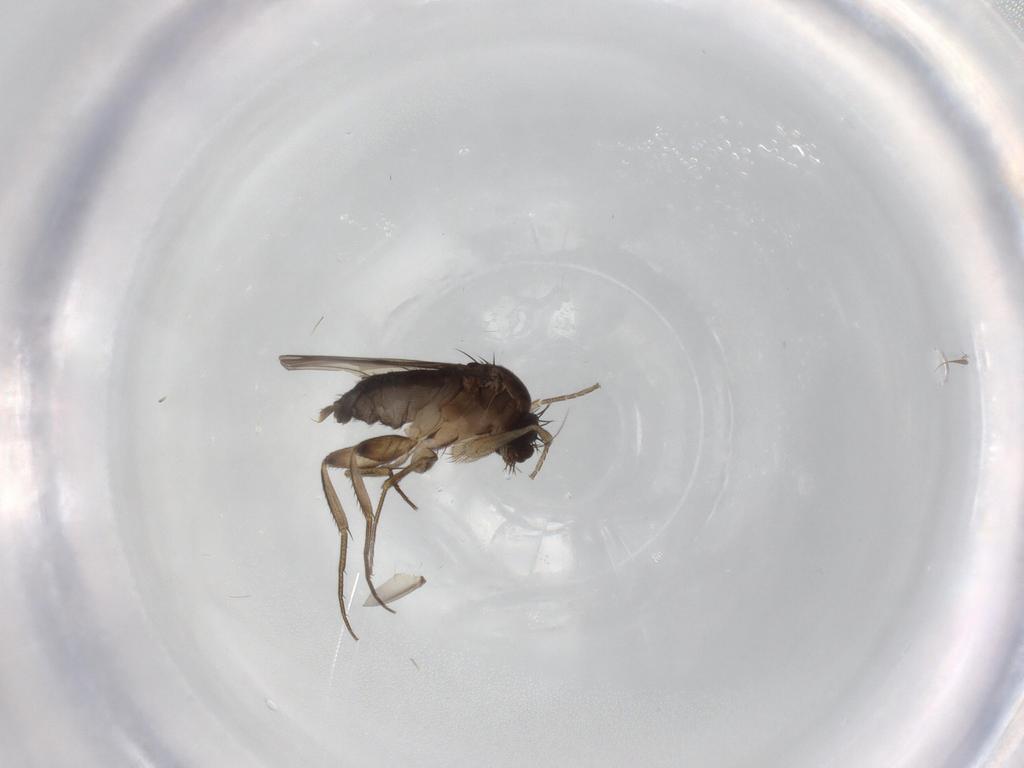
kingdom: Animalia
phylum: Arthropoda
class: Insecta
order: Diptera
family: Phoridae
